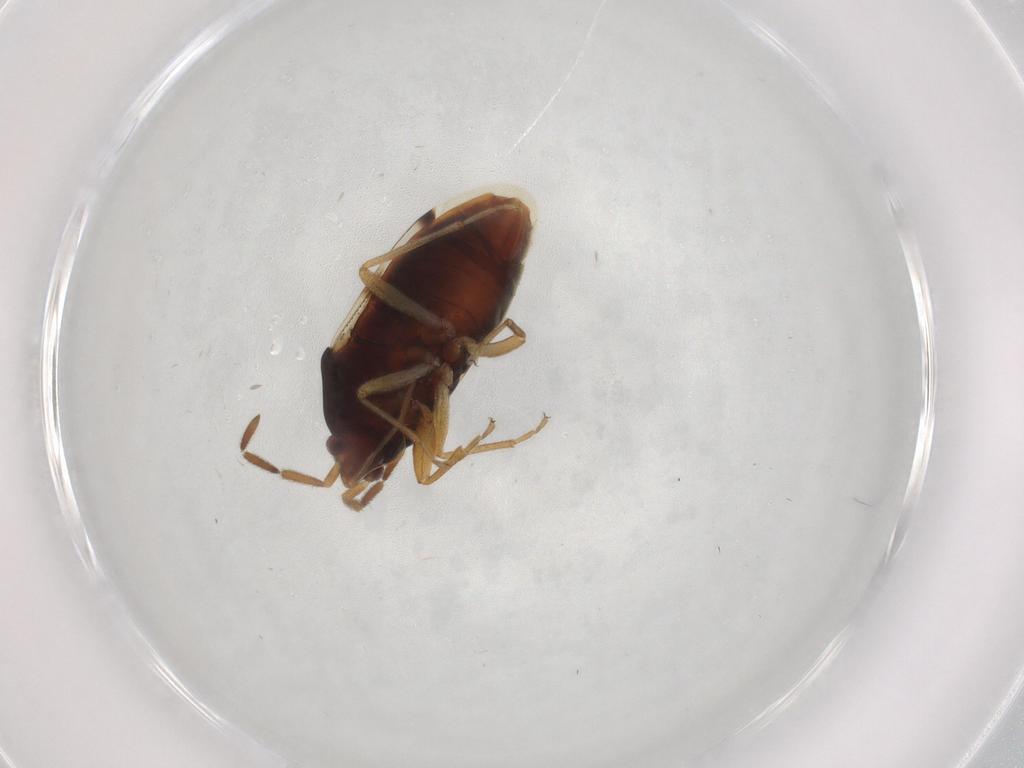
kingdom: Animalia
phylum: Arthropoda
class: Insecta
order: Hemiptera
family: Rhyparochromidae
